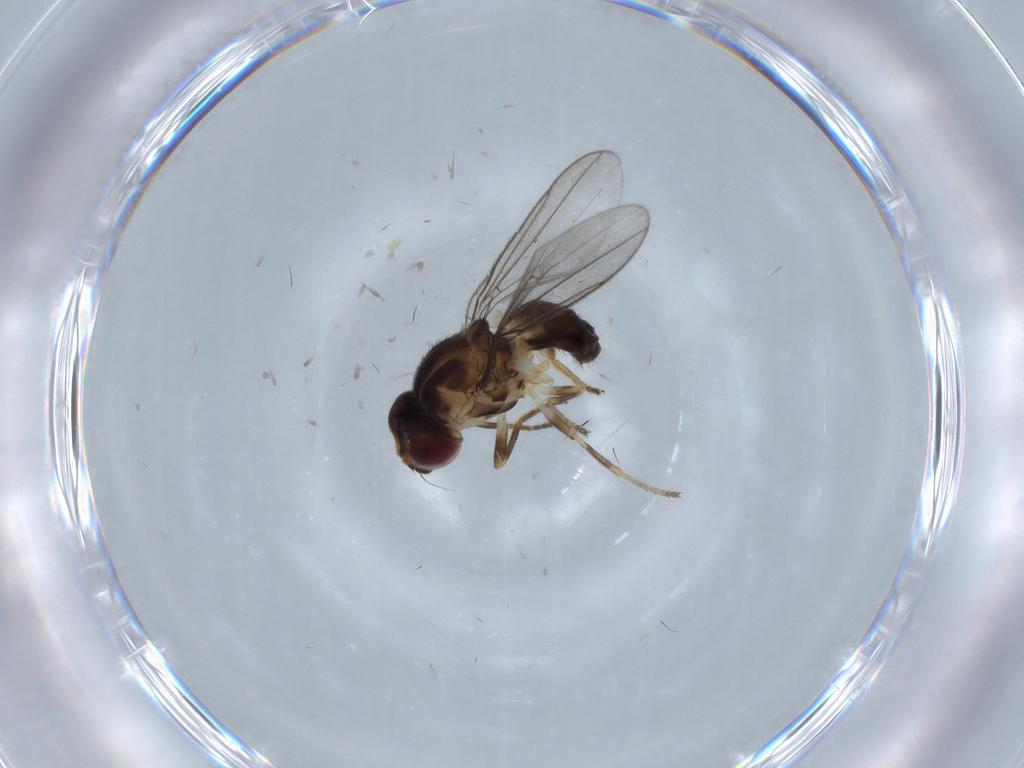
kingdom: Animalia
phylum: Arthropoda
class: Insecta
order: Diptera
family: Chloropidae
